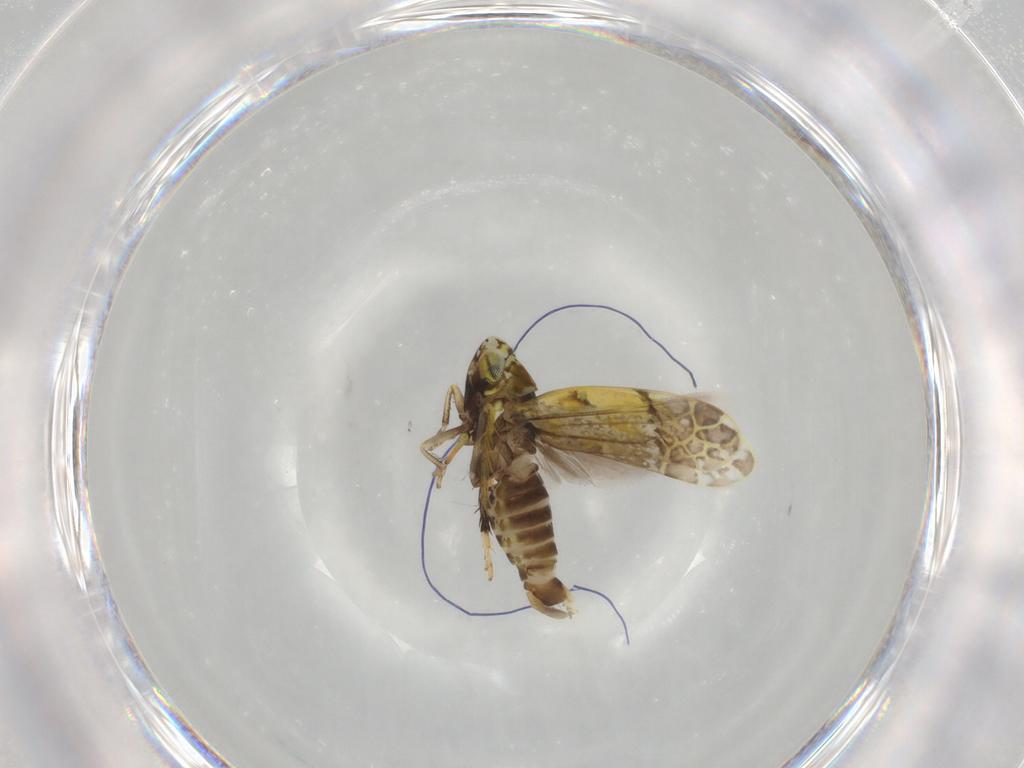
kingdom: Animalia
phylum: Arthropoda
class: Insecta
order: Hemiptera
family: Cicadellidae
